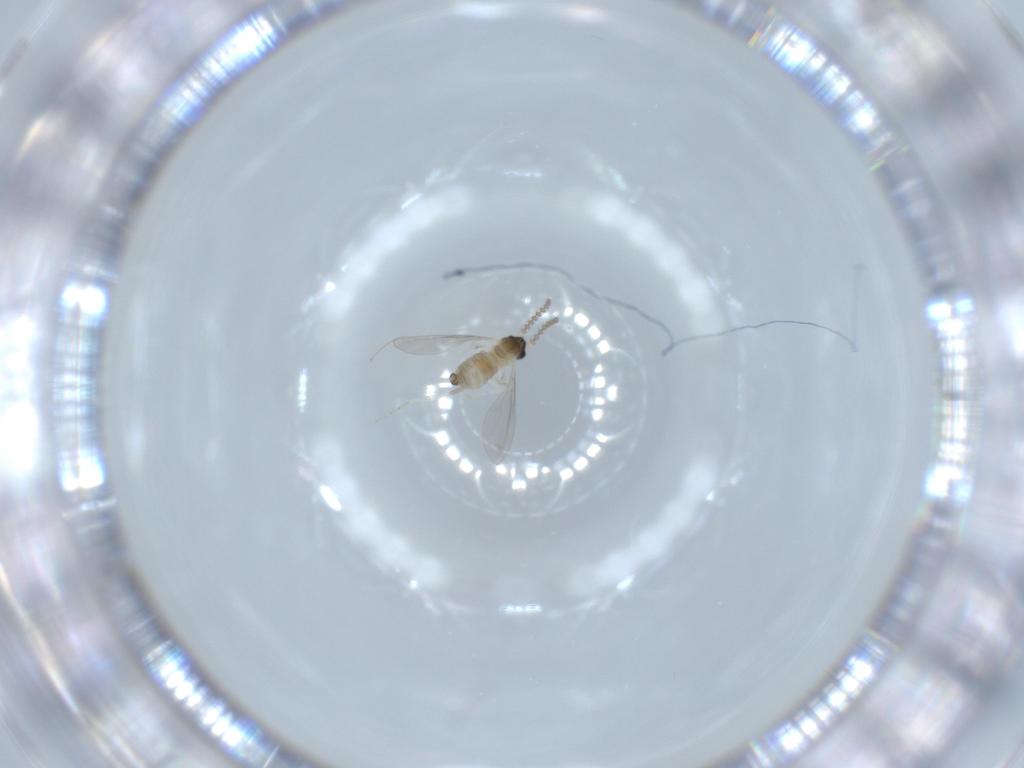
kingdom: Animalia
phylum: Arthropoda
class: Insecta
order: Diptera
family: Cecidomyiidae
